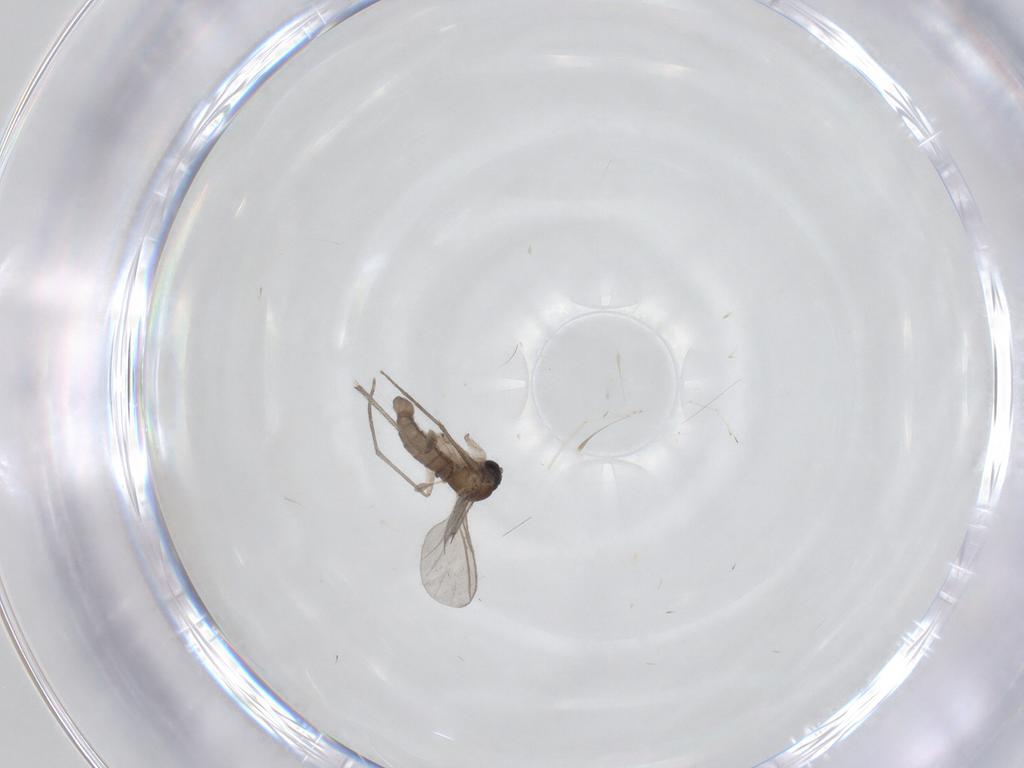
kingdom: Animalia
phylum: Arthropoda
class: Insecta
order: Diptera
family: Sciaridae
